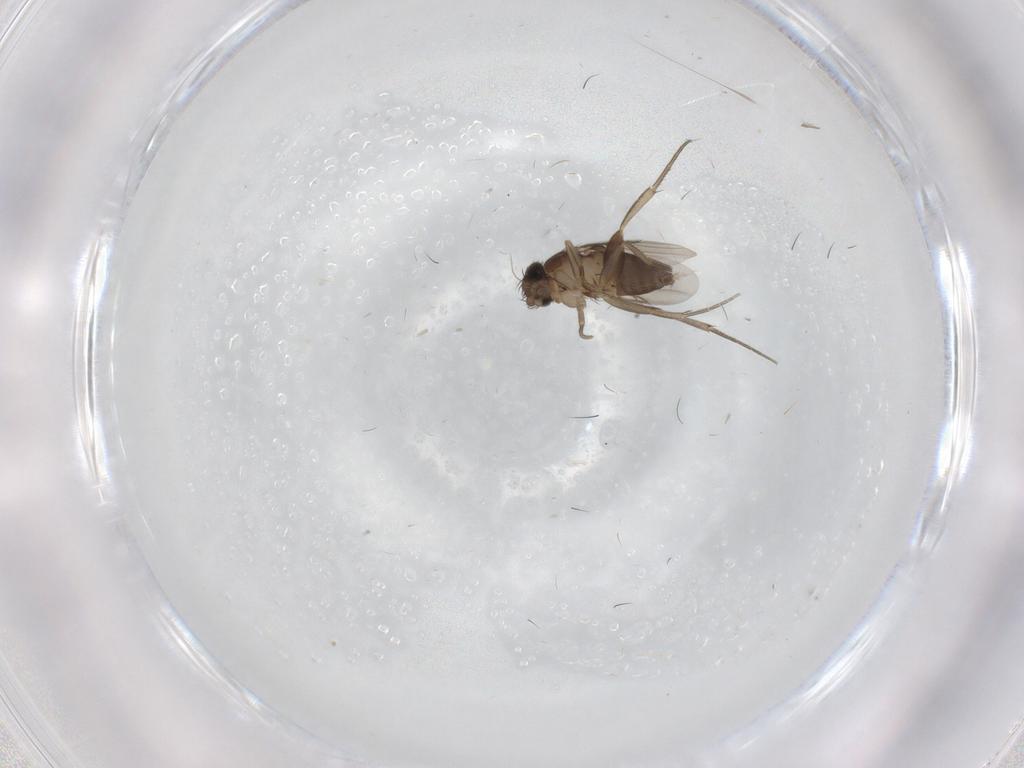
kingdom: Animalia
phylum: Arthropoda
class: Insecta
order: Diptera
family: Phoridae
